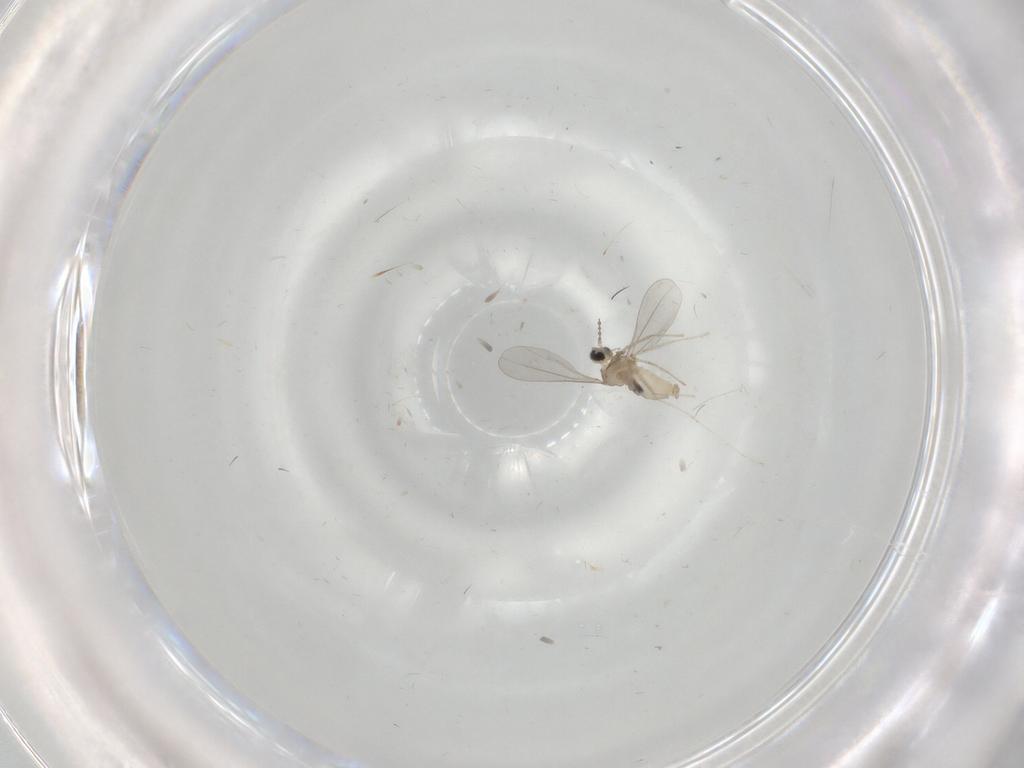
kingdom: Animalia
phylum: Arthropoda
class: Insecta
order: Diptera
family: Cecidomyiidae
